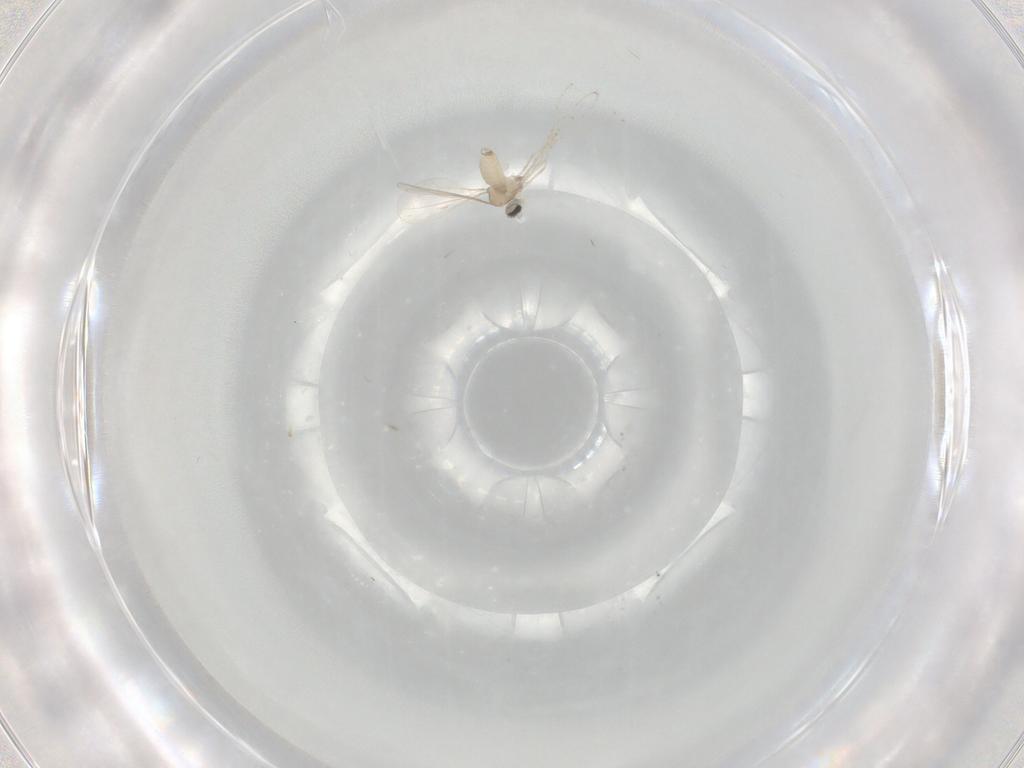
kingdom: Animalia
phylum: Arthropoda
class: Insecta
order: Diptera
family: Cecidomyiidae
